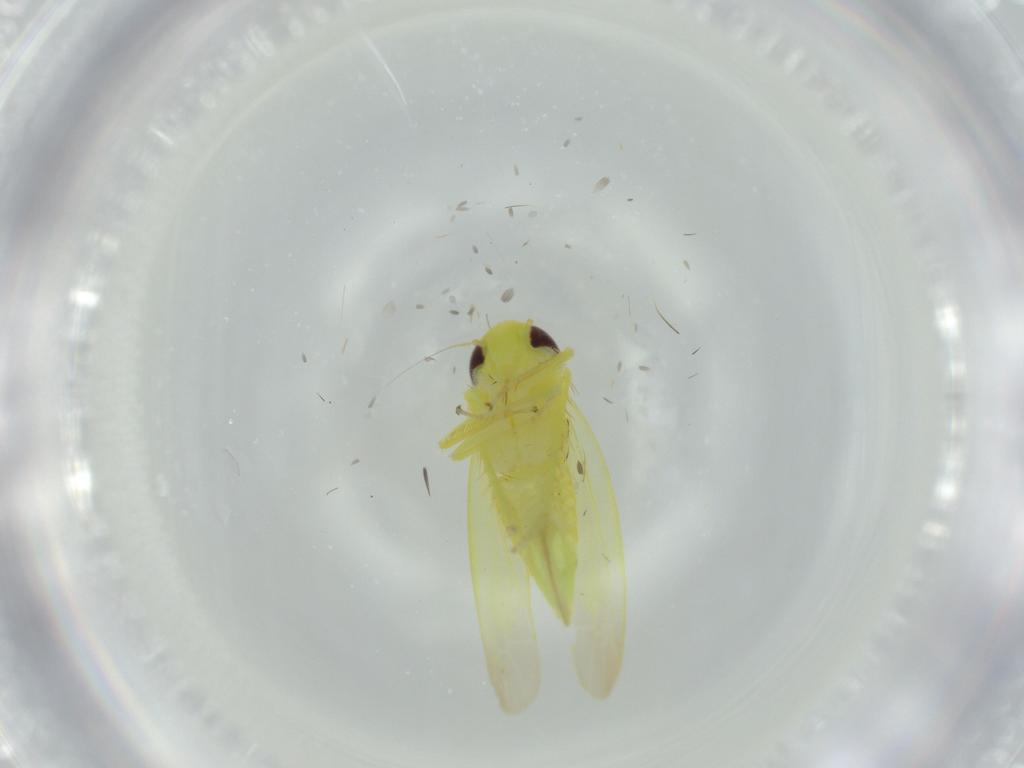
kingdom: Animalia
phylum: Arthropoda
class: Insecta
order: Hemiptera
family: Cicadellidae
